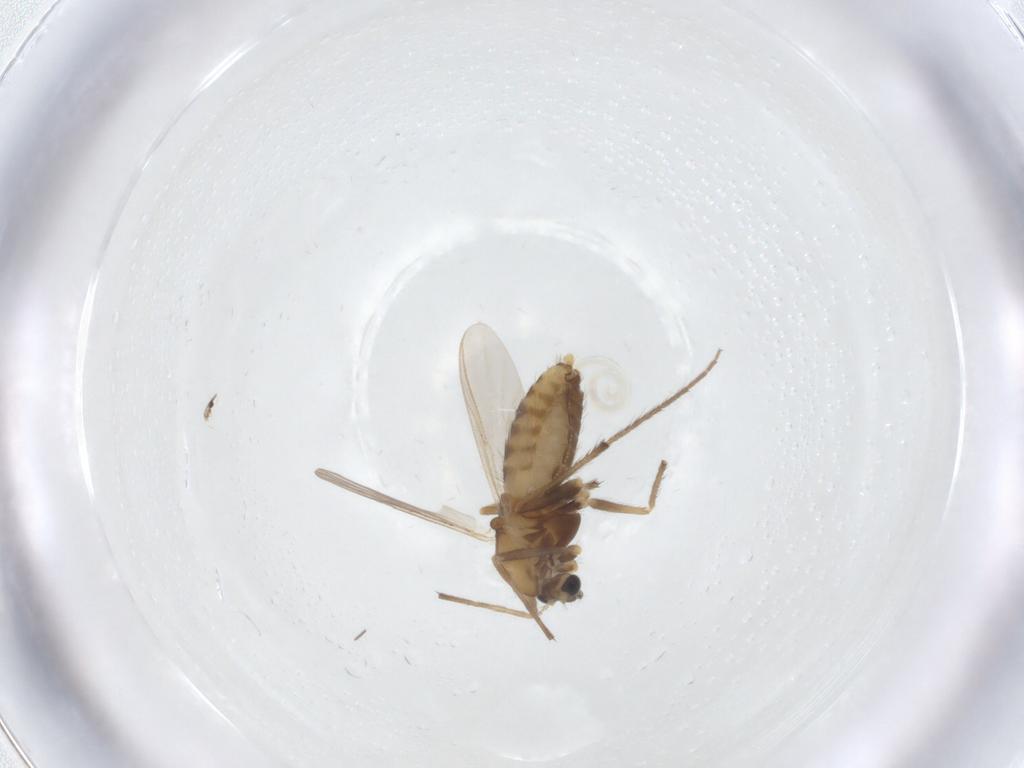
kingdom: Animalia
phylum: Arthropoda
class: Insecta
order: Diptera
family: Chironomidae
